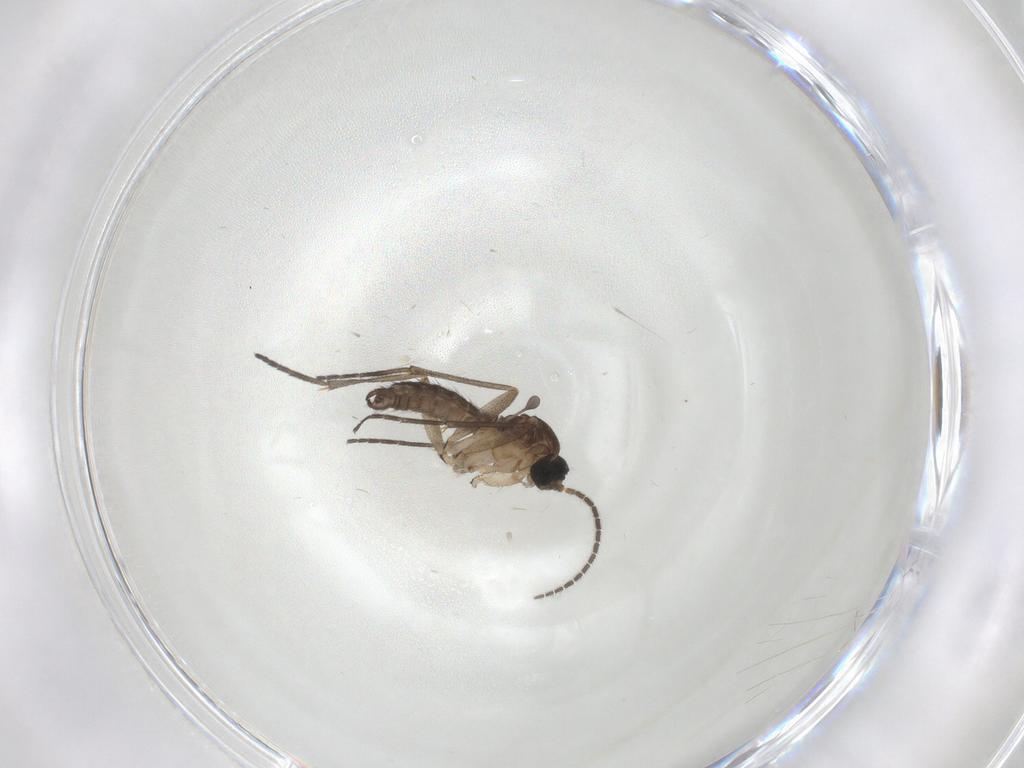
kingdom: Animalia
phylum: Arthropoda
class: Insecta
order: Diptera
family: Sciaridae
